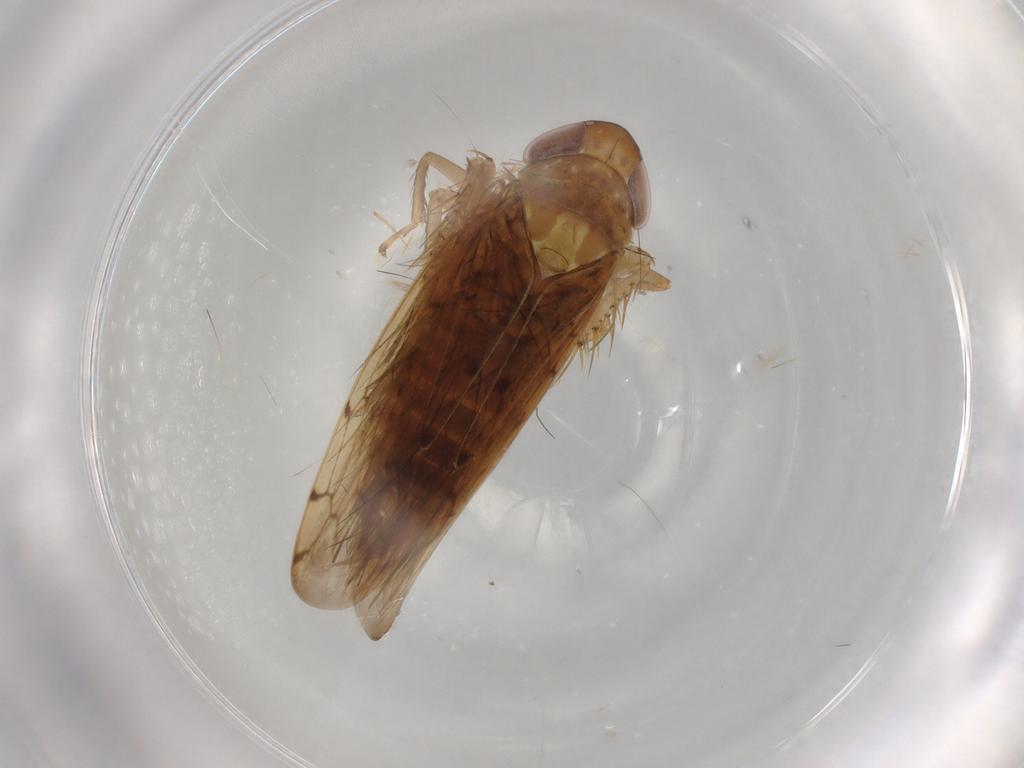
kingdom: Animalia
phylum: Arthropoda
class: Insecta
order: Hemiptera
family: Cicadellidae
